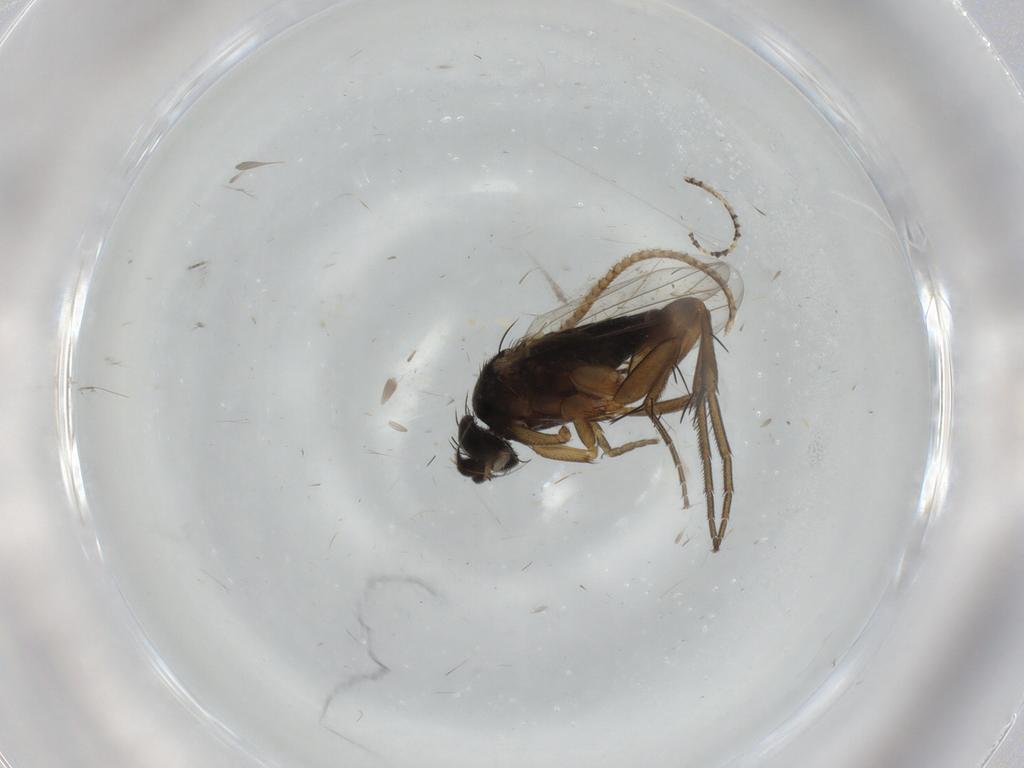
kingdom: Animalia
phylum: Arthropoda
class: Insecta
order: Diptera
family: Phoridae
